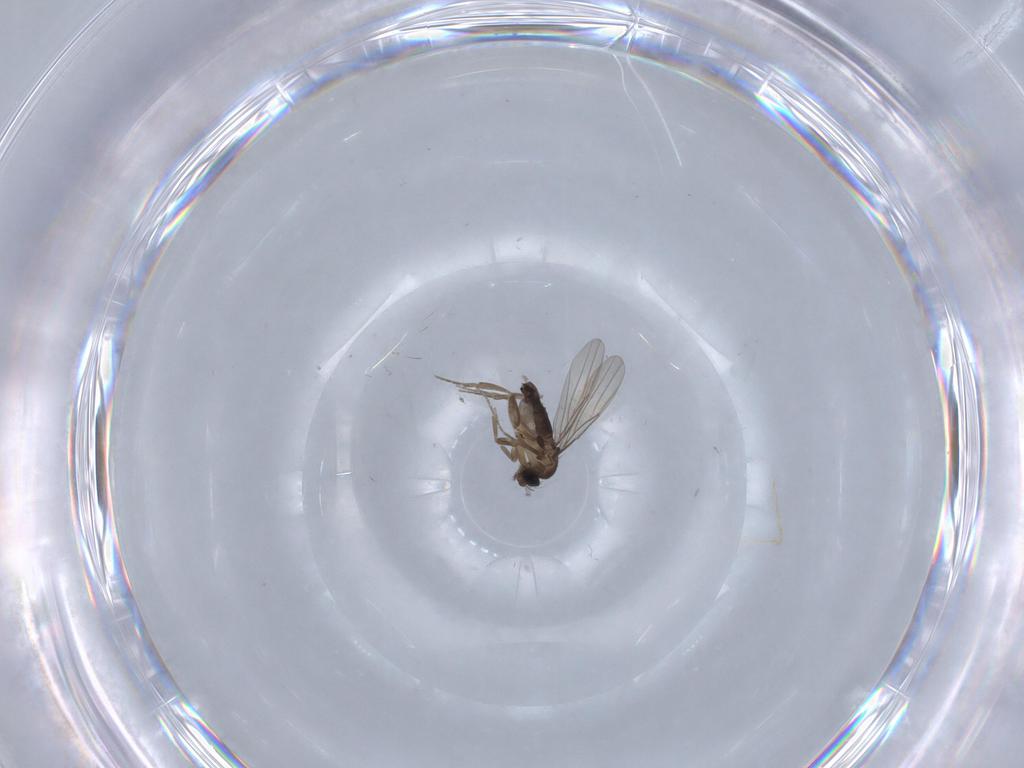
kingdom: Animalia
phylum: Arthropoda
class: Insecta
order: Diptera
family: Phoridae
